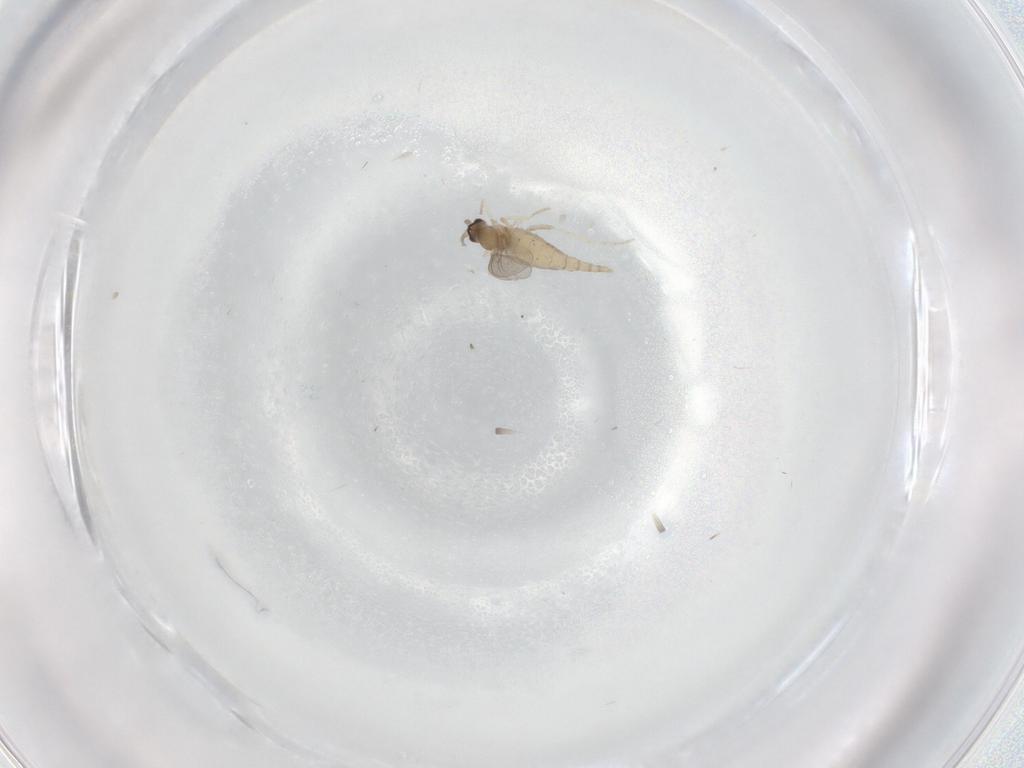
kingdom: Animalia
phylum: Arthropoda
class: Insecta
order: Diptera
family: Cecidomyiidae
